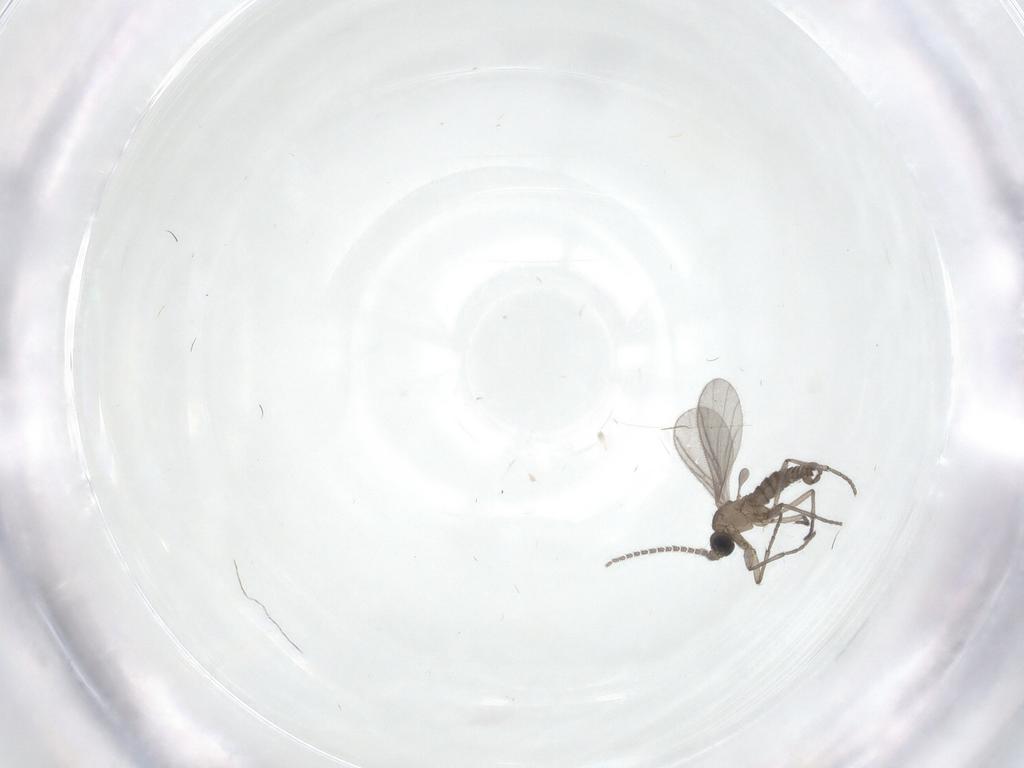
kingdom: Animalia
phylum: Arthropoda
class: Insecta
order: Diptera
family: Sciaridae
